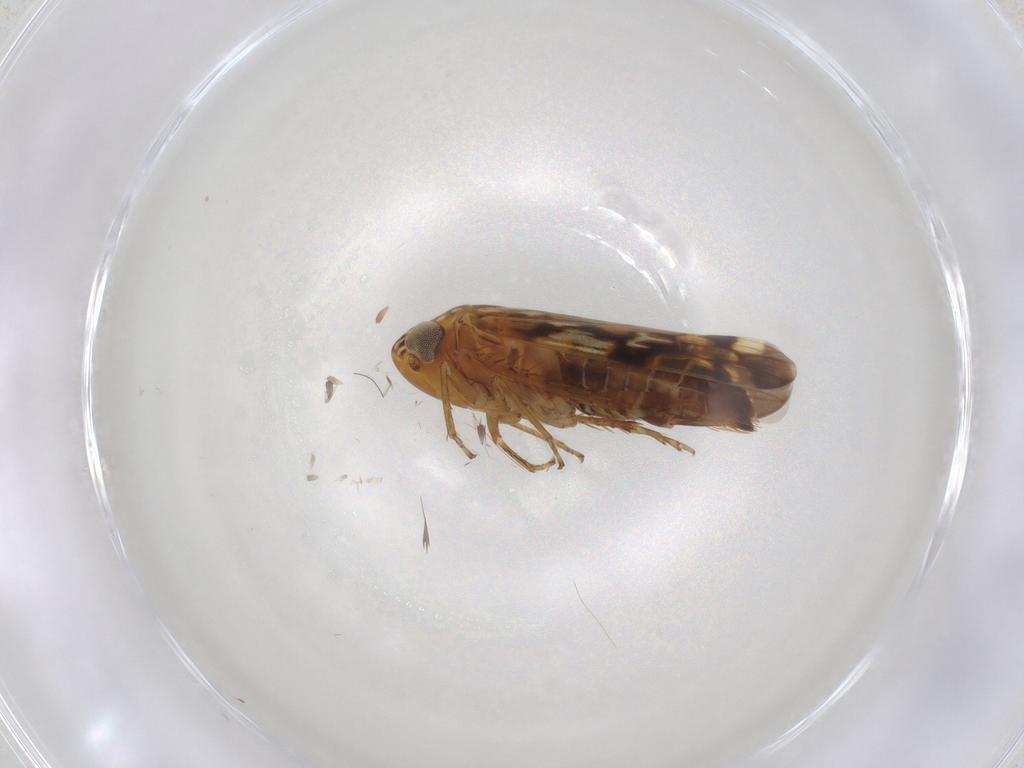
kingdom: Animalia
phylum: Arthropoda
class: Insecta
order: Hemiptera
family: Cicadellidae
